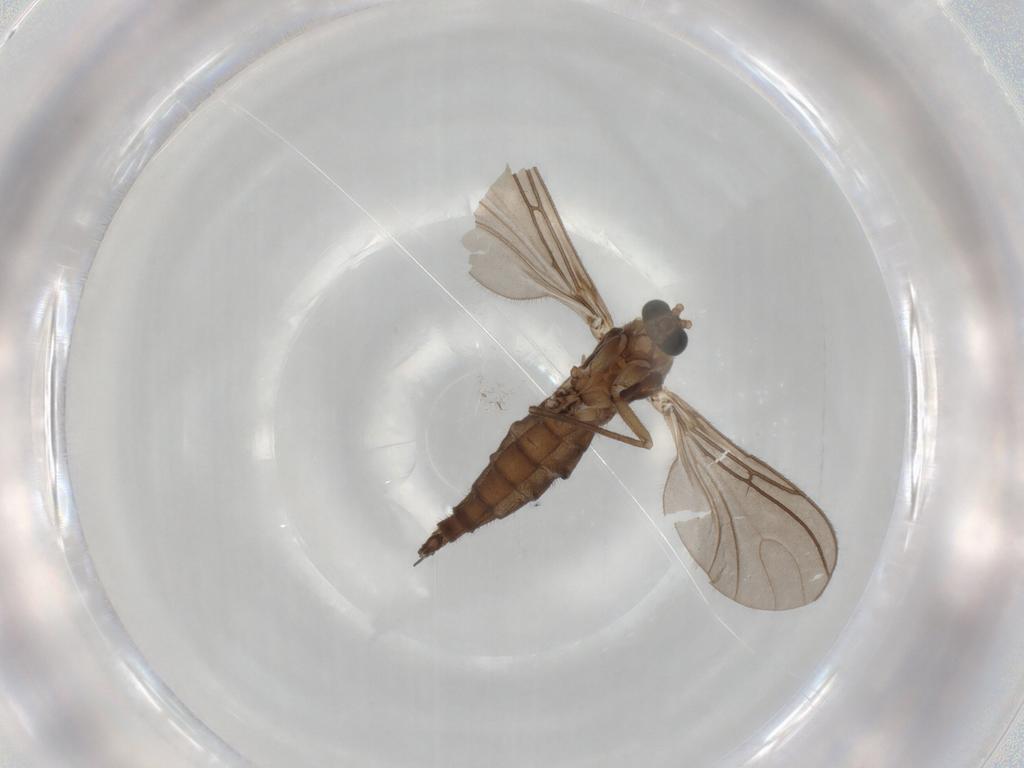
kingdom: Animalia
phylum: Arthropoda
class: Insecta
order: Diptera
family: Sciaridae
